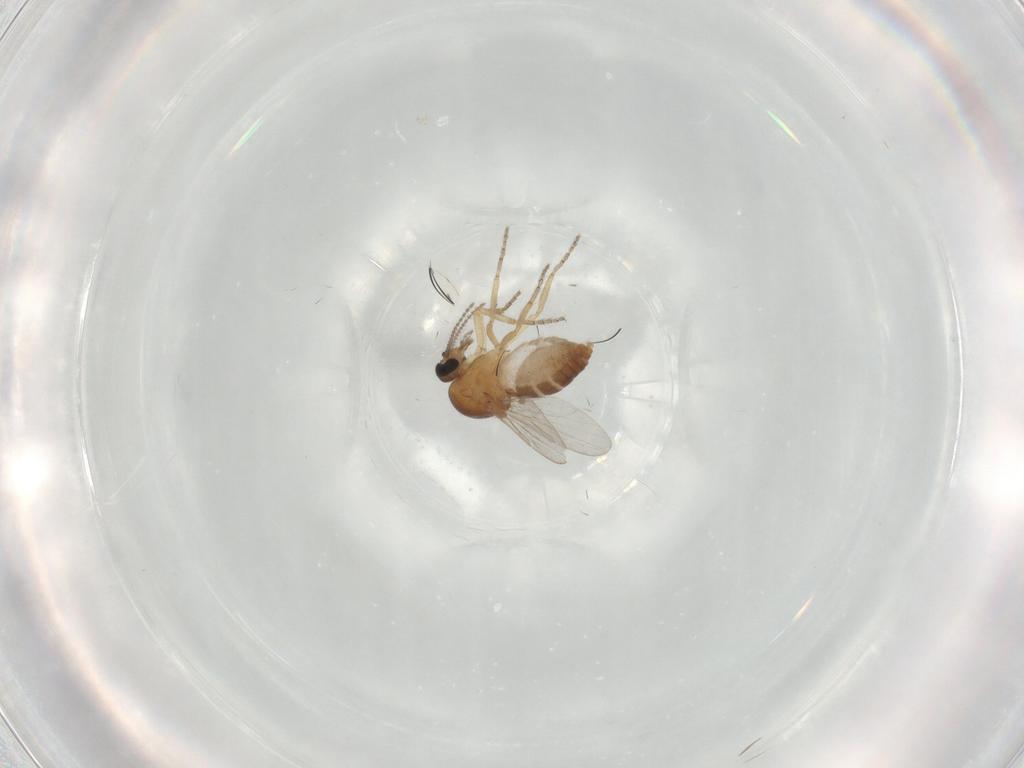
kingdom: Animalia
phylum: Arthropoda
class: Insecta
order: Diptera
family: Ceratopogonidae
